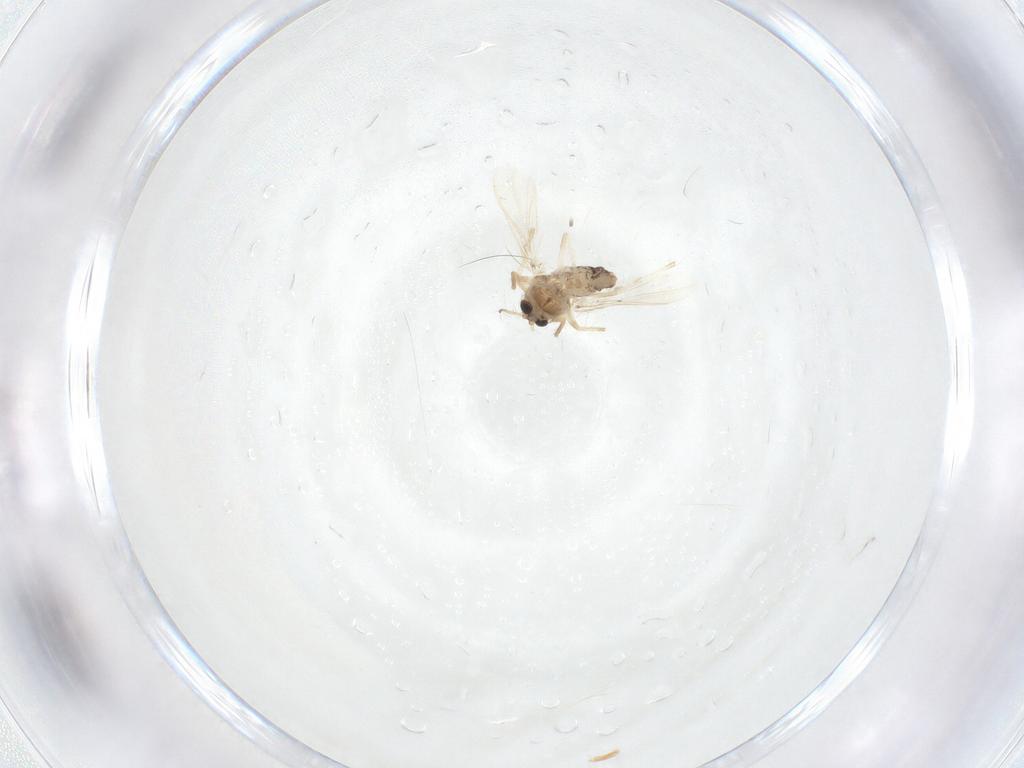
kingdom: Animalia
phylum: Arthropoda
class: Insecta
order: Diptera
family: Chironomidae
